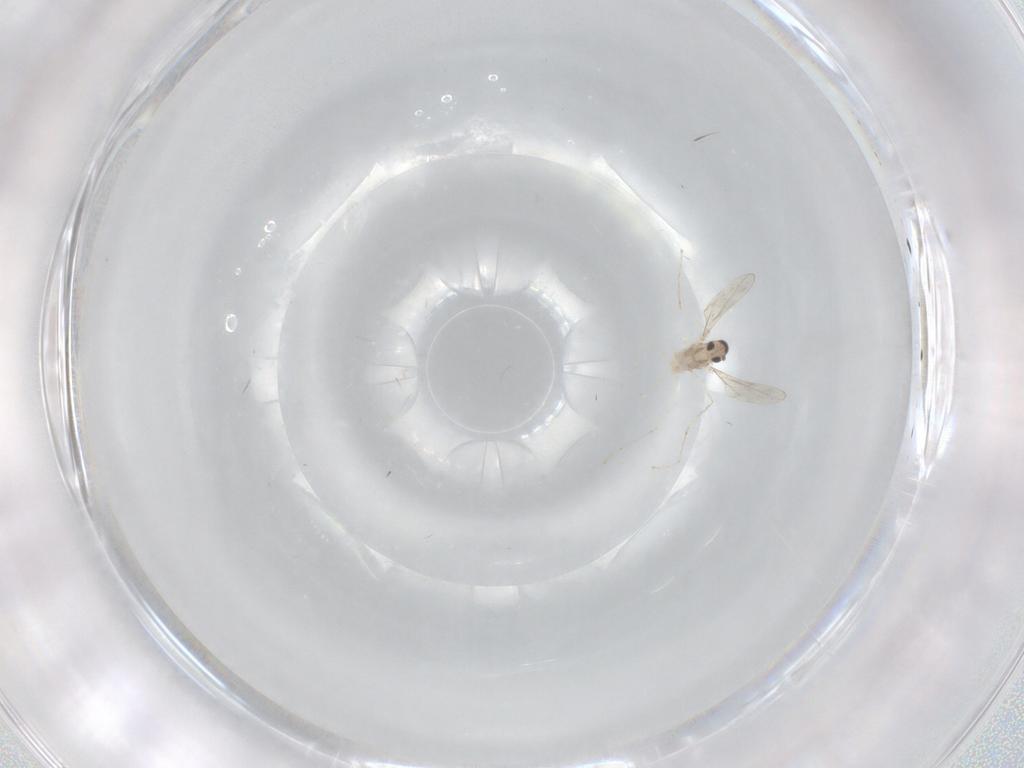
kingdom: Animalia
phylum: Arthropoda
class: Insecta
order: Diptera
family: Cecidomyiidae
